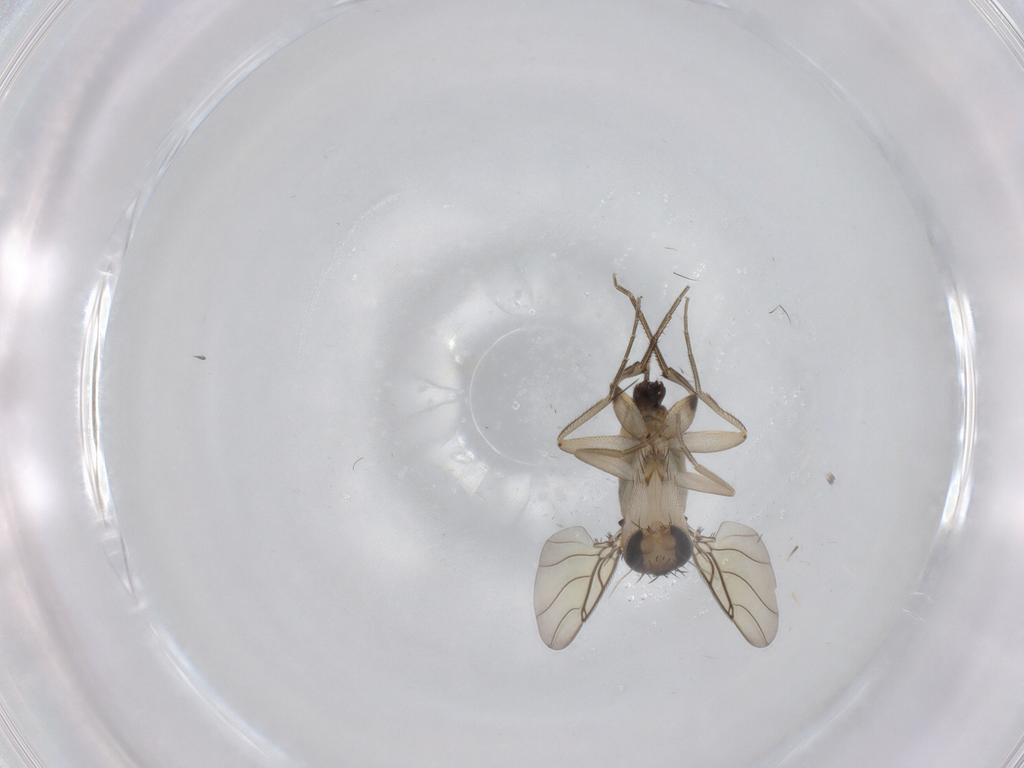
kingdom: Animalia
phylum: Arthropoda
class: Insecta
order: Diptera
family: Phoridae
